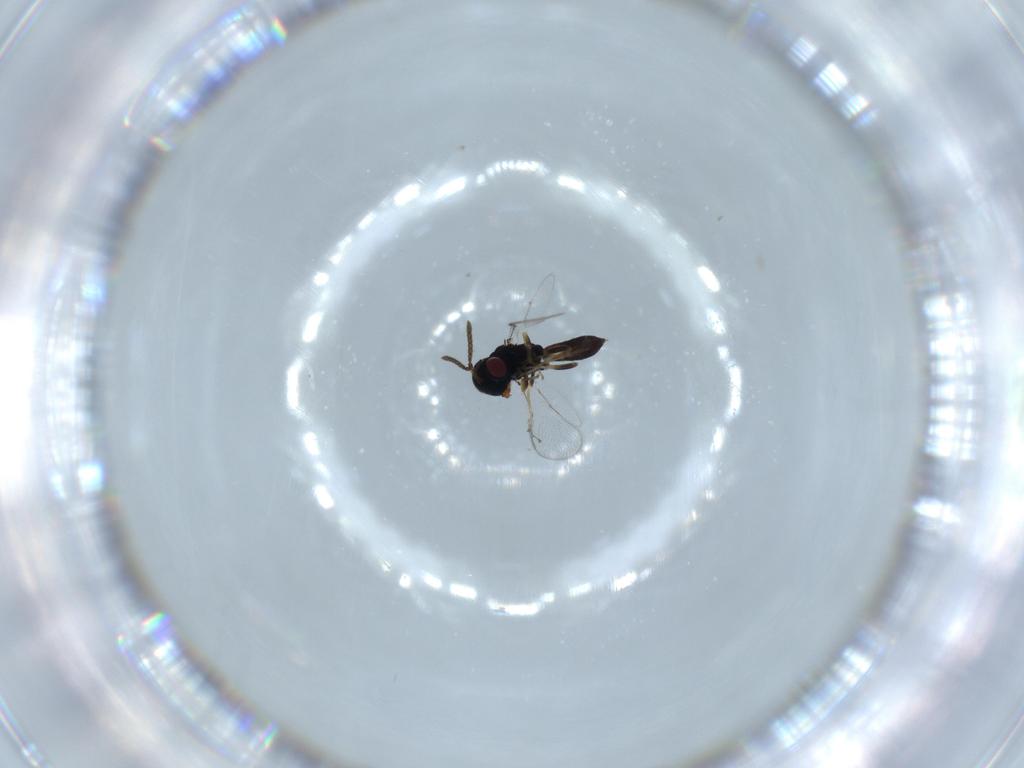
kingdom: Animalia
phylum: Arthropoda
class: Insecta
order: Hymenoptera
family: Pteromalidae
